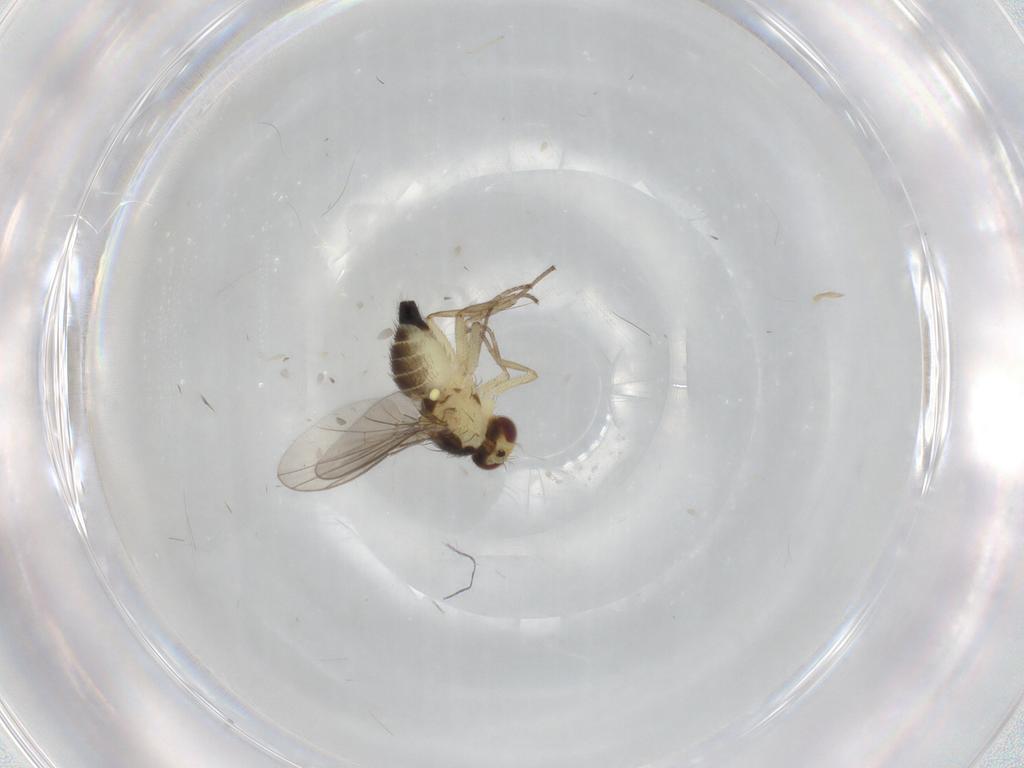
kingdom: Animalia
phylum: Arthropoda
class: Insecta
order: Diptera
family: Agromyzidae
